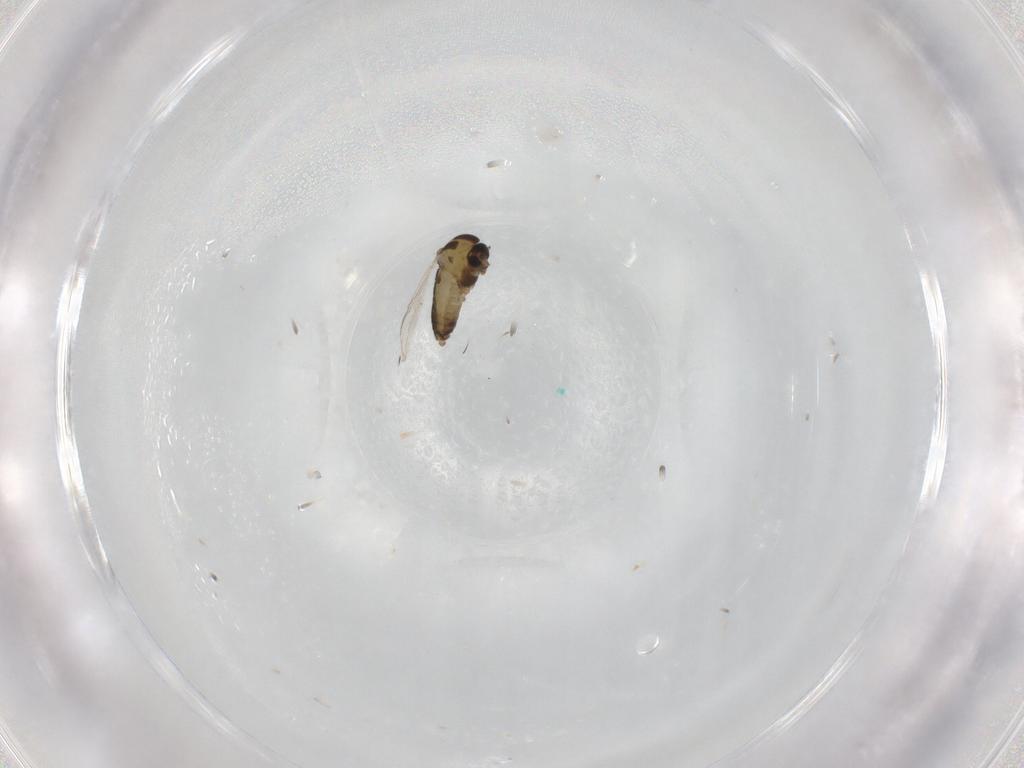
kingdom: Animalia
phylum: Arthropoda
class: Insecta
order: Diptera
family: Chironomidae
